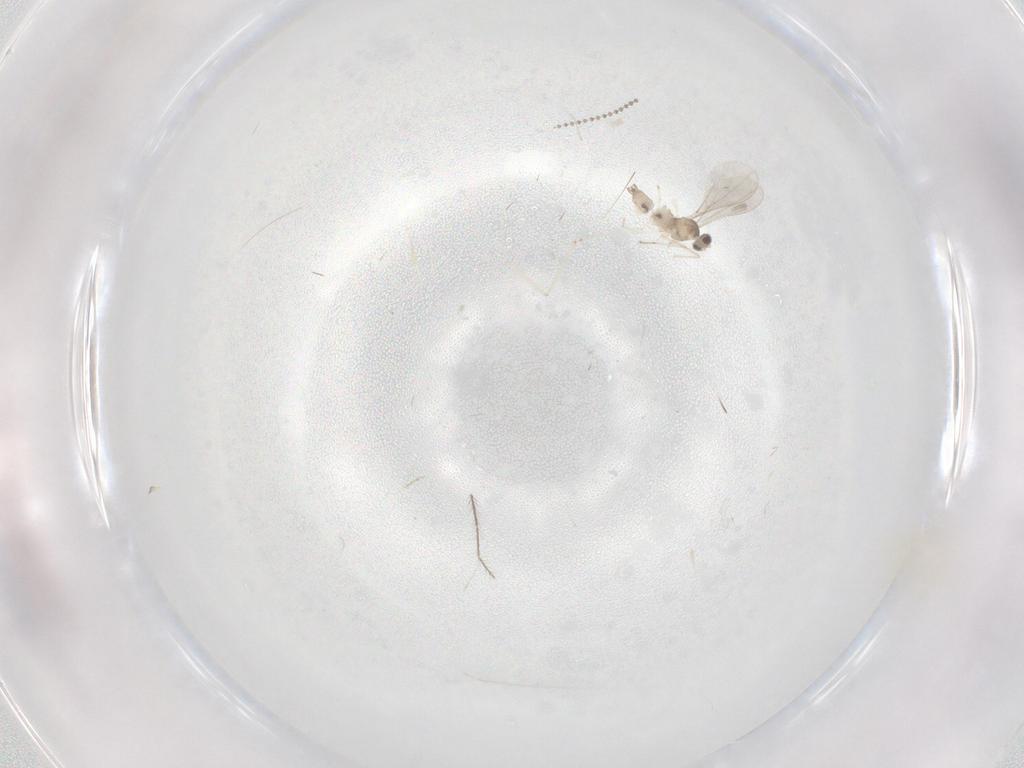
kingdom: Animalia
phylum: Arthropoda
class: Insecta
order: Diptera
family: Cecidomyiidae
